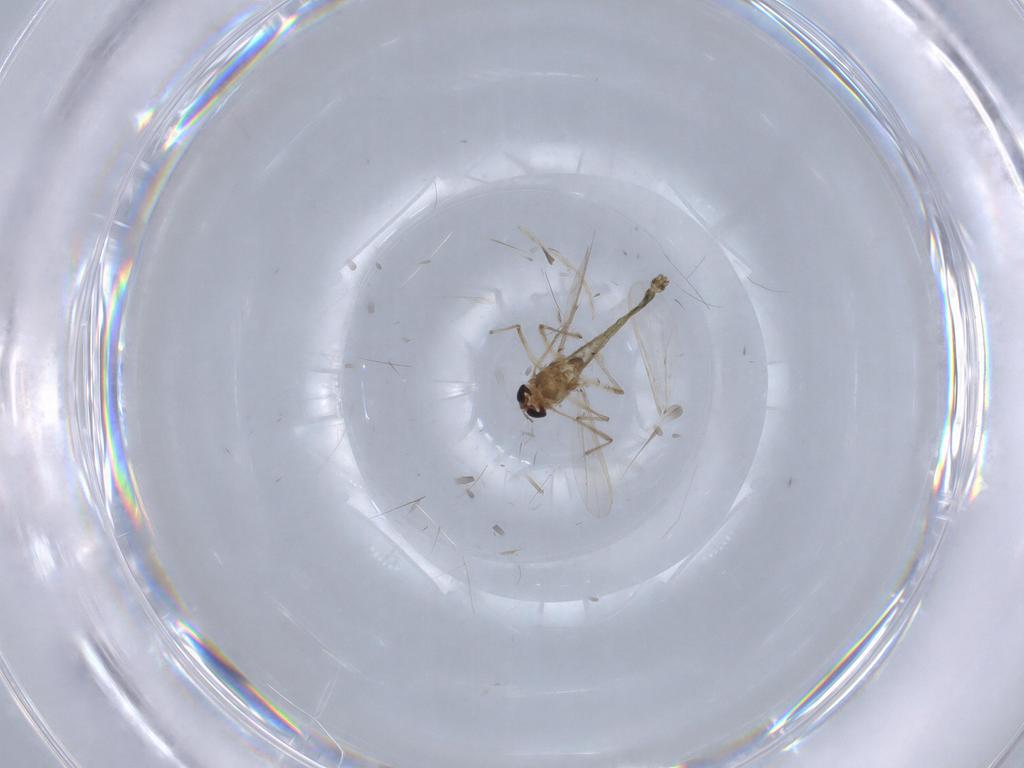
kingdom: Animalia
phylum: Arthropoda
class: Insecta
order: Diptera
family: Chironomidae
